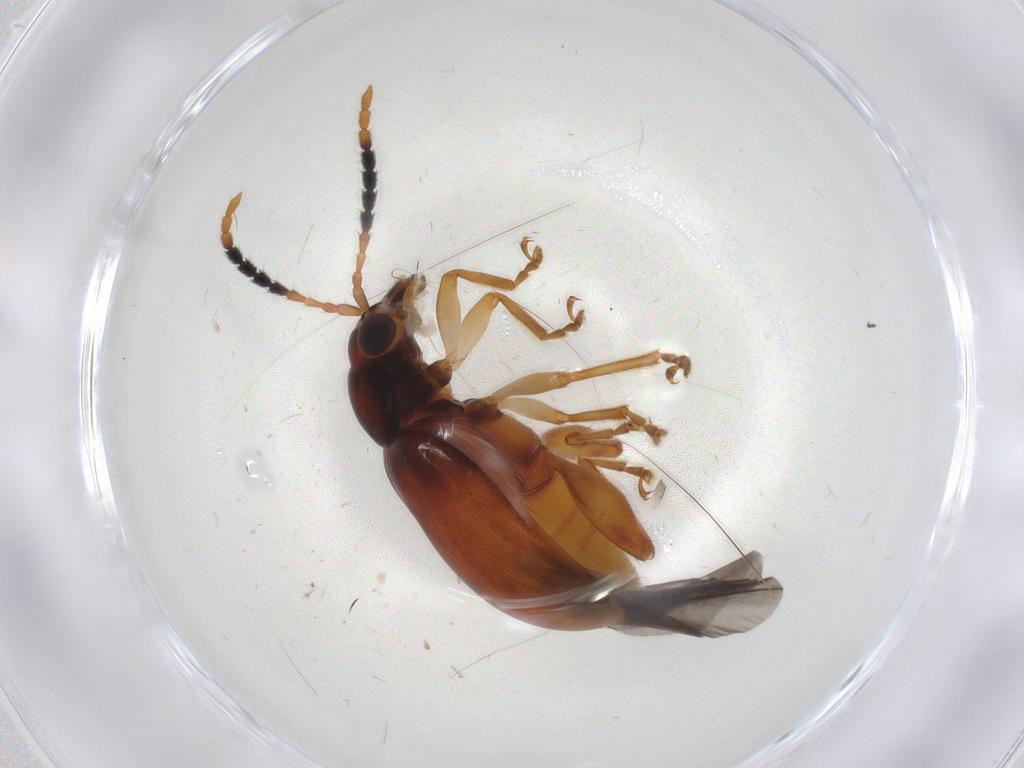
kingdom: Animalia
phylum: Arthropoda
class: Insecta
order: Coleoptera
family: Chrysomelidae
